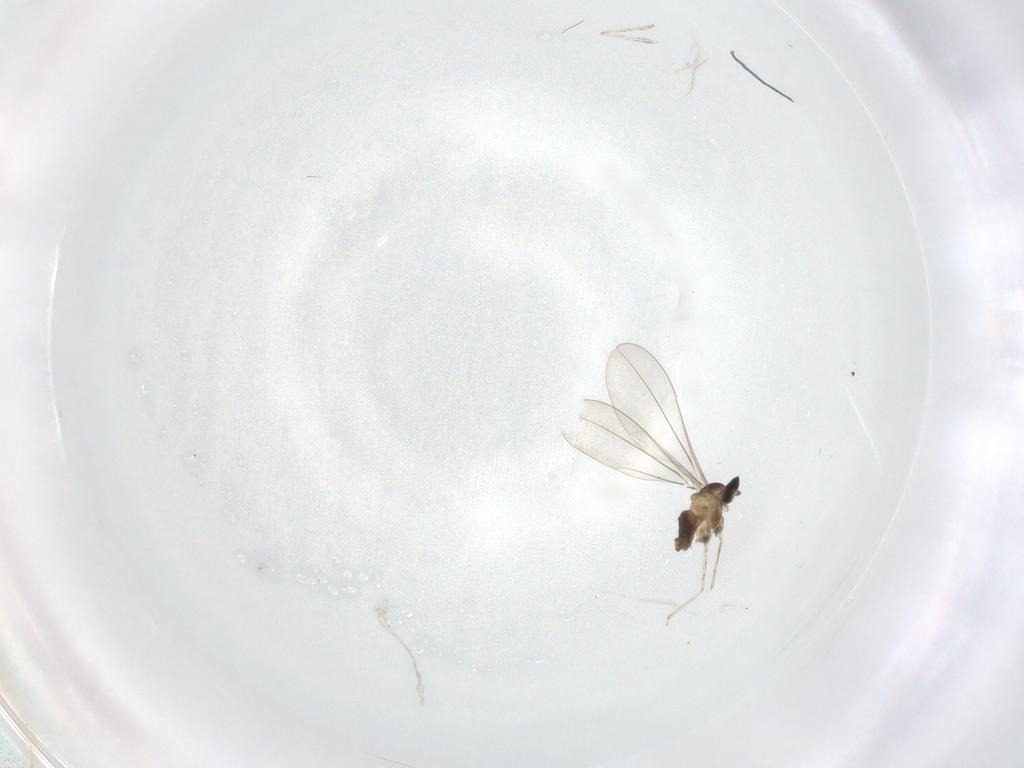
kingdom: Animalia
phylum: Arthropoda
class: Insecta
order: Diptera
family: Cecidomyiidae
